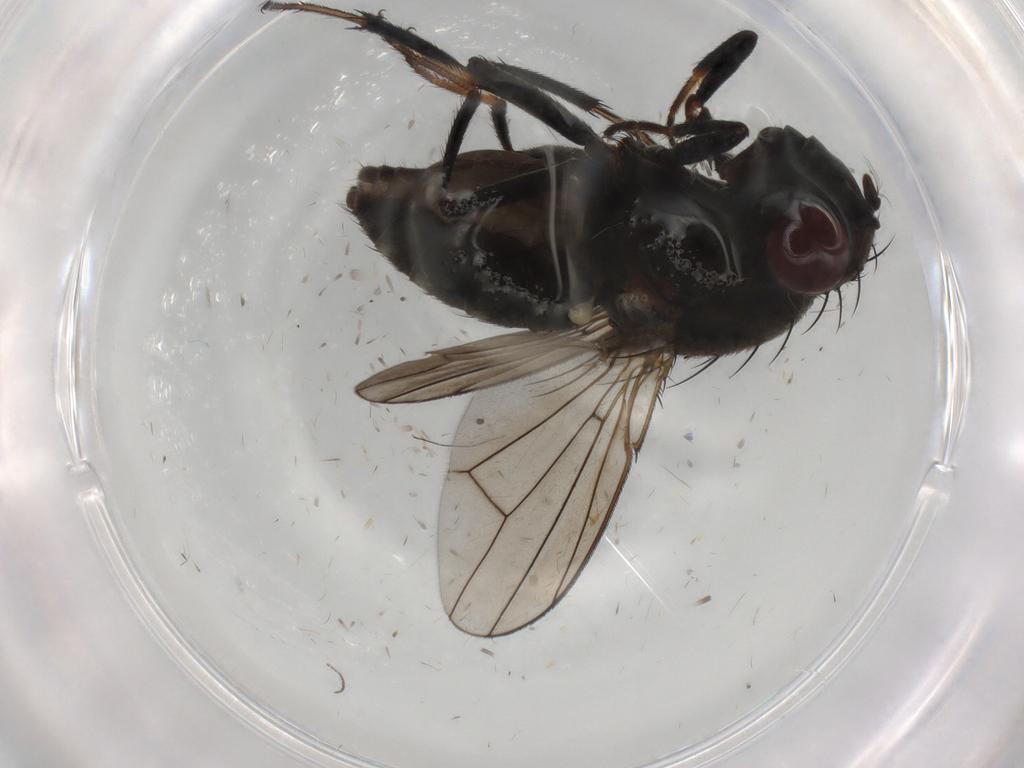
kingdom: Animalia
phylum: Arthropoda
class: Insecta
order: Diptera
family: Ephydridae
